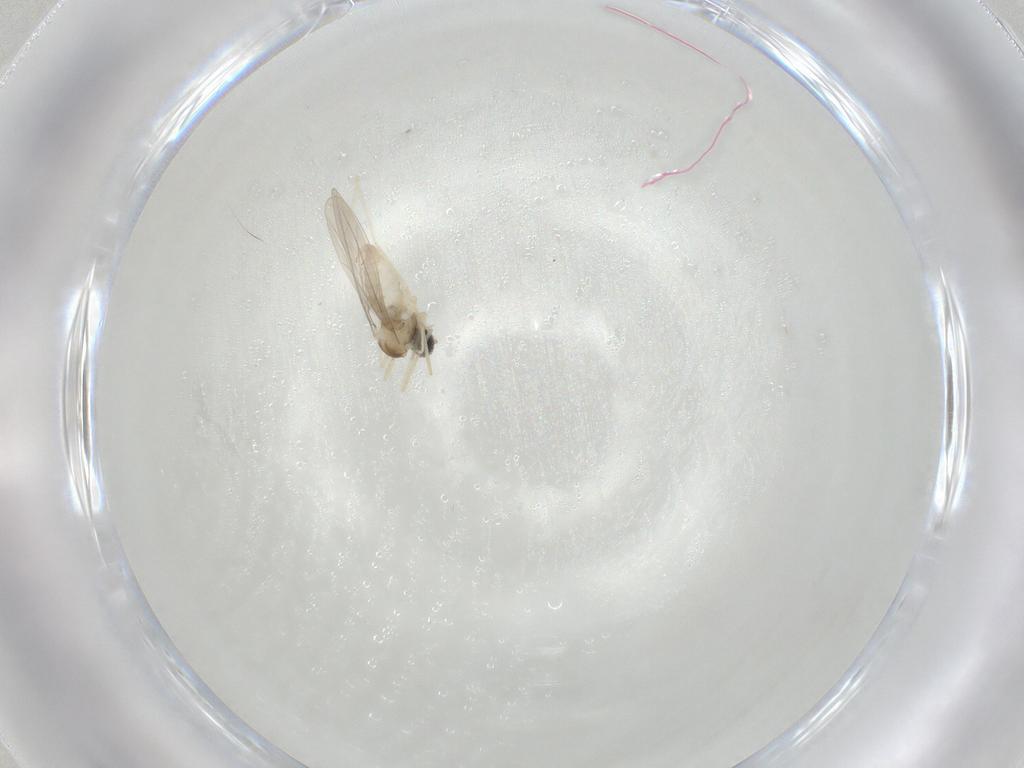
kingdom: Animalia
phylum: Arthropoda
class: Insecta
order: Diptera
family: Cecidomyiidae
